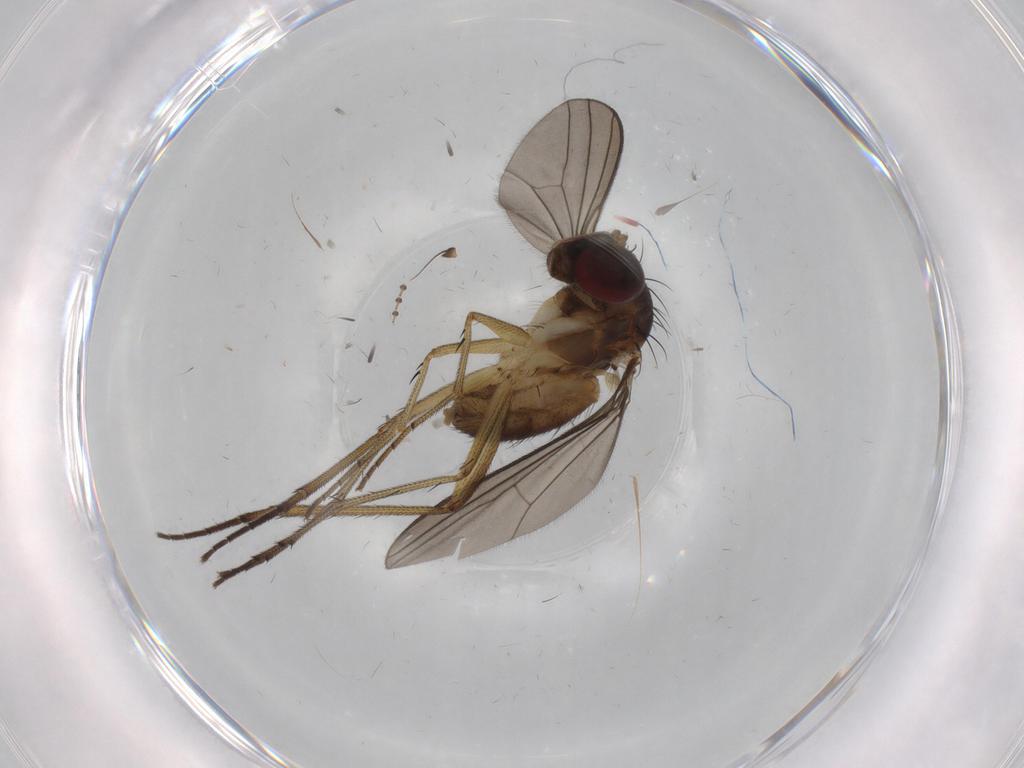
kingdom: Animalia
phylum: Arthropoda
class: Insecta
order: Diptera
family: Dolichopodidae
